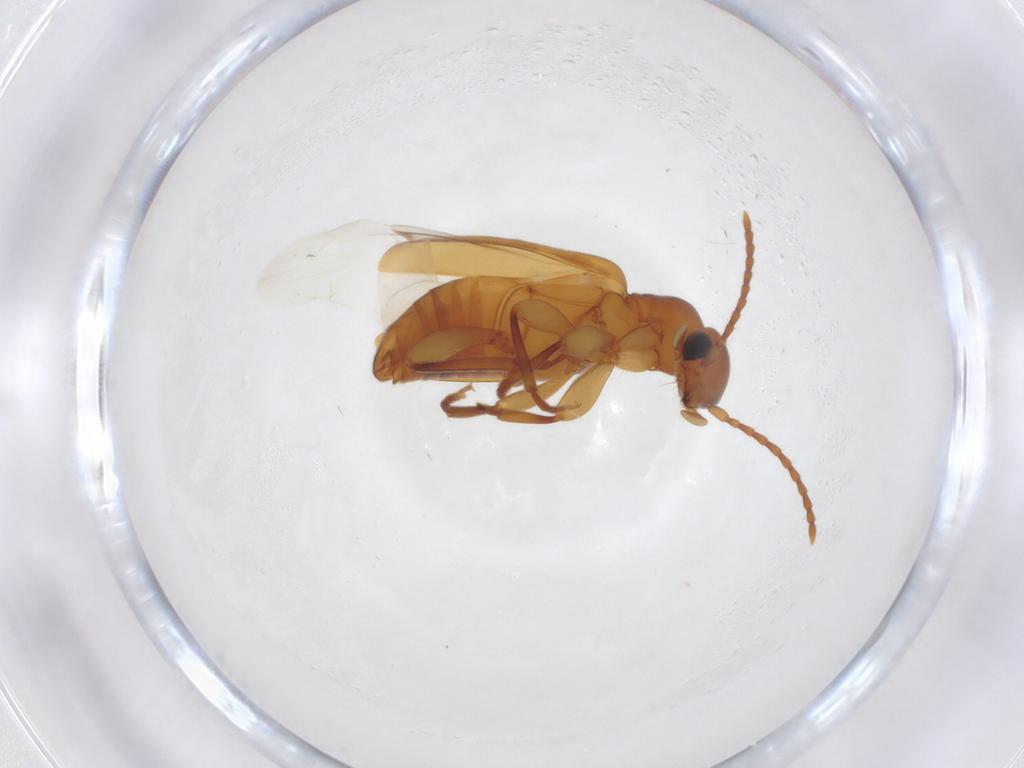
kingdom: Animalia
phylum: Arthropoda
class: Insecta
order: Coleoptera
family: Anthicidae
